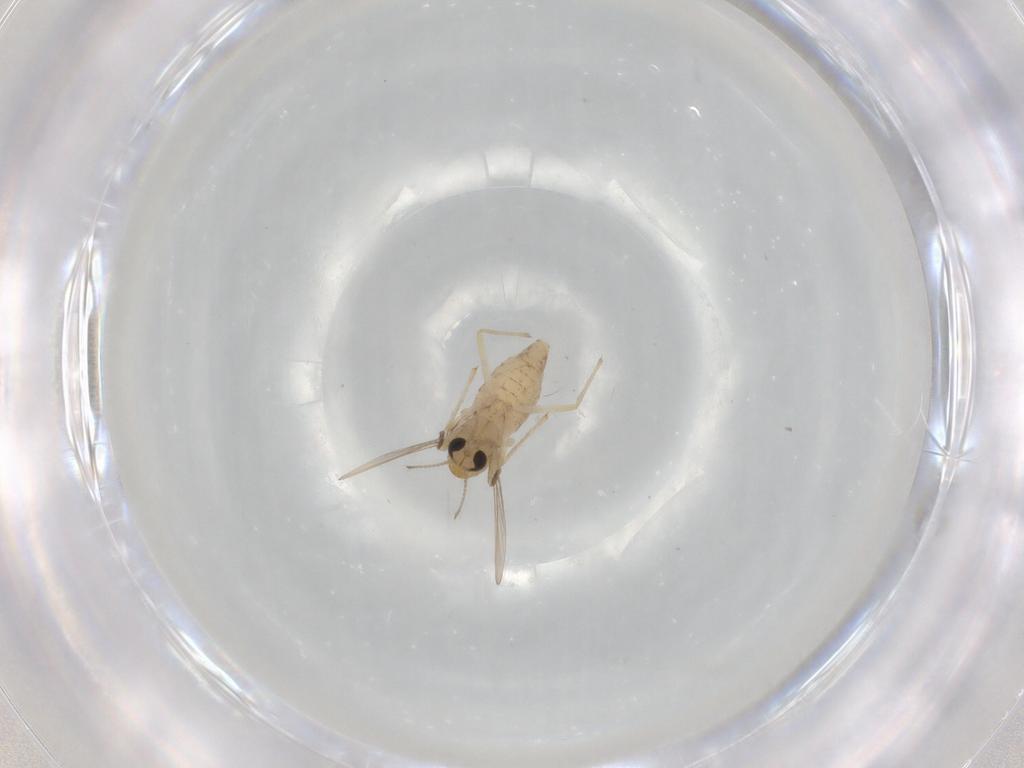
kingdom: Animalia
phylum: Arthropoda
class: Insecta
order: Diptera
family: Chironomidae
